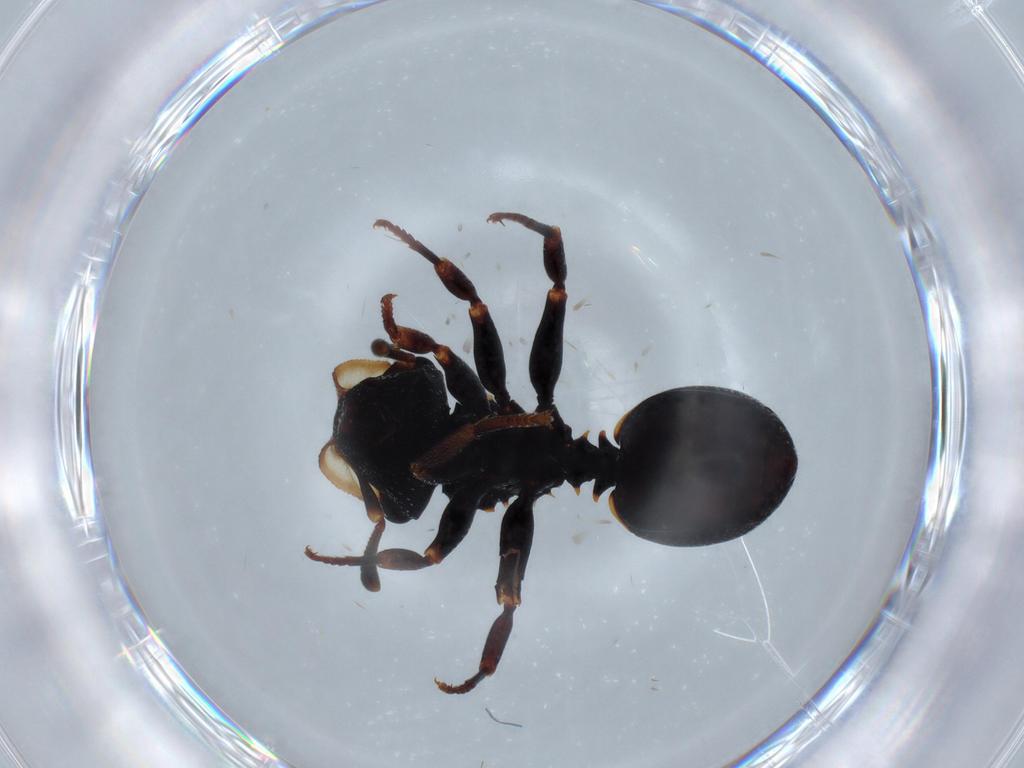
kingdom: Animalia
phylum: Arthropoda
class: Insecta
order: Hymenoptera
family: Formicidae
